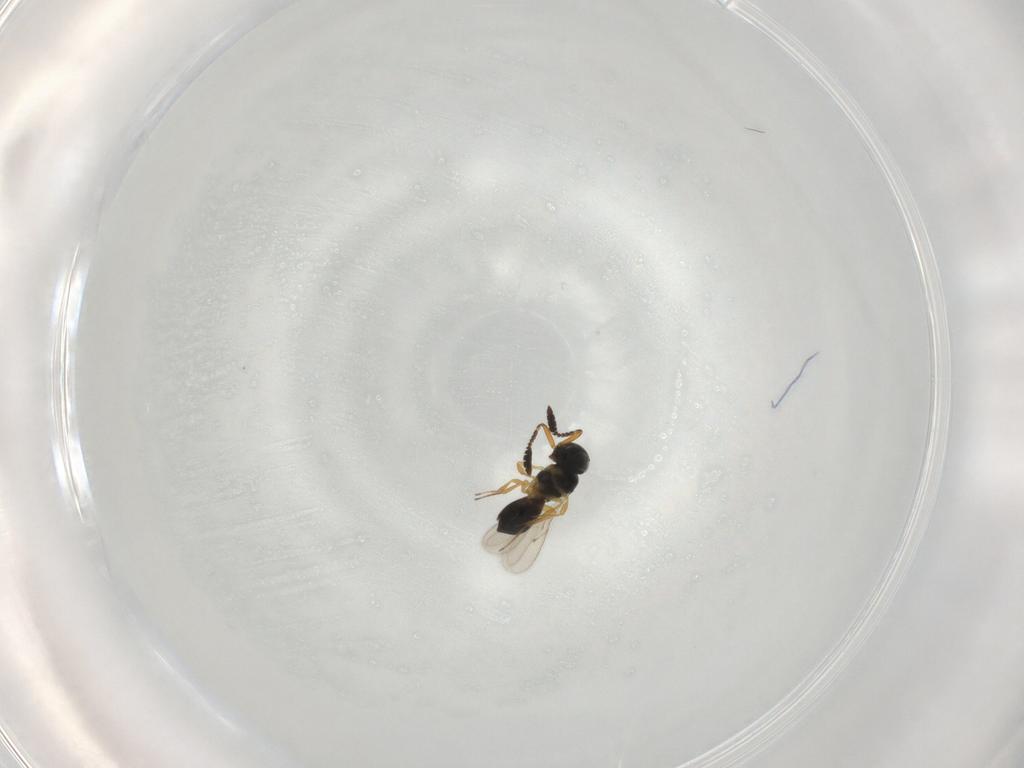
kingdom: Animalia
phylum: Arthropoda
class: Insecta
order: Hymenoptera
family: Scelionidae
